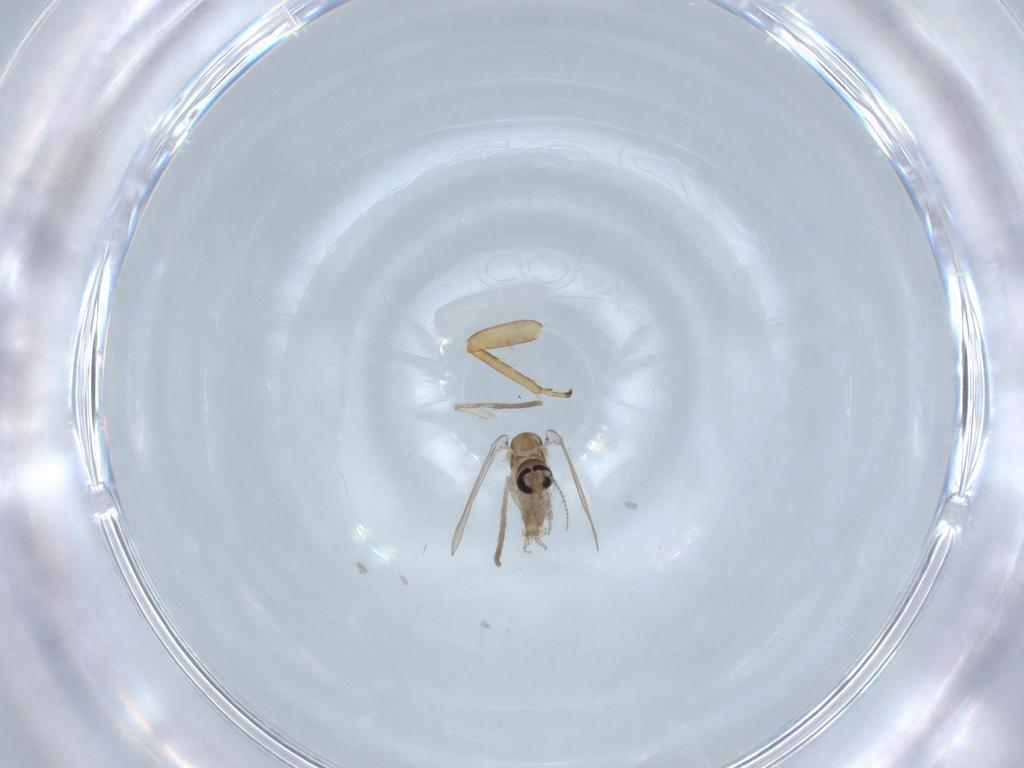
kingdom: Animalia
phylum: Arthropoda
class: Insecta
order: Diptera
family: Psychodidae
